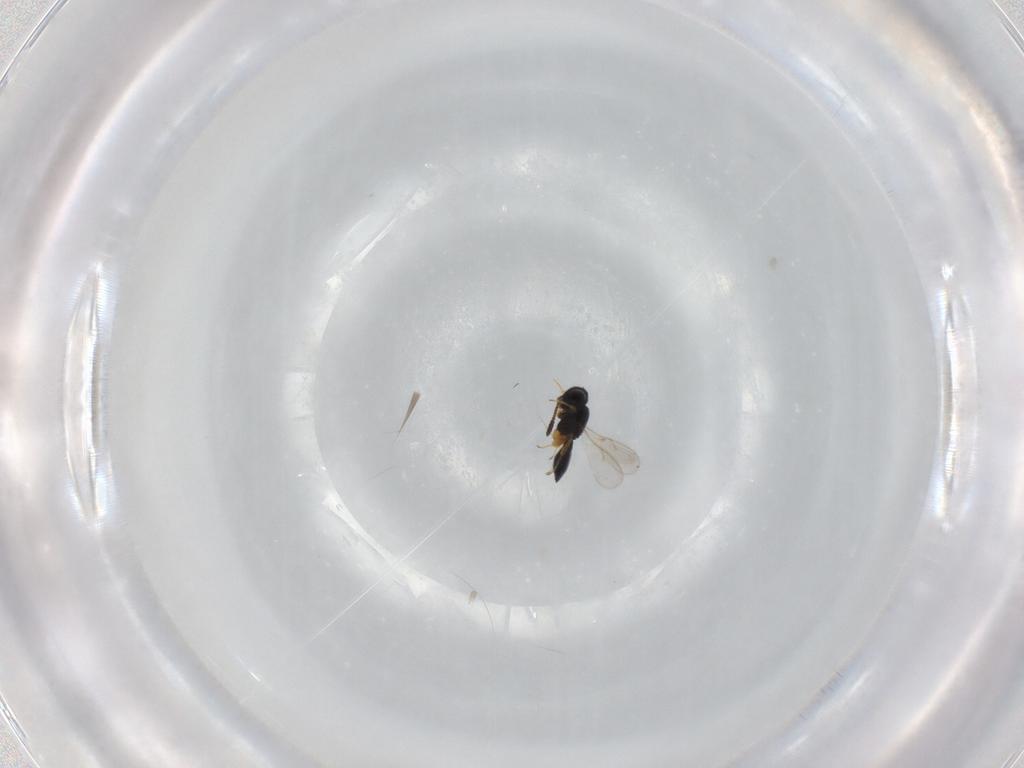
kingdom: Animalia
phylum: Arthropoda
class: Insecta
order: Hymenoptera
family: Scelionidae
